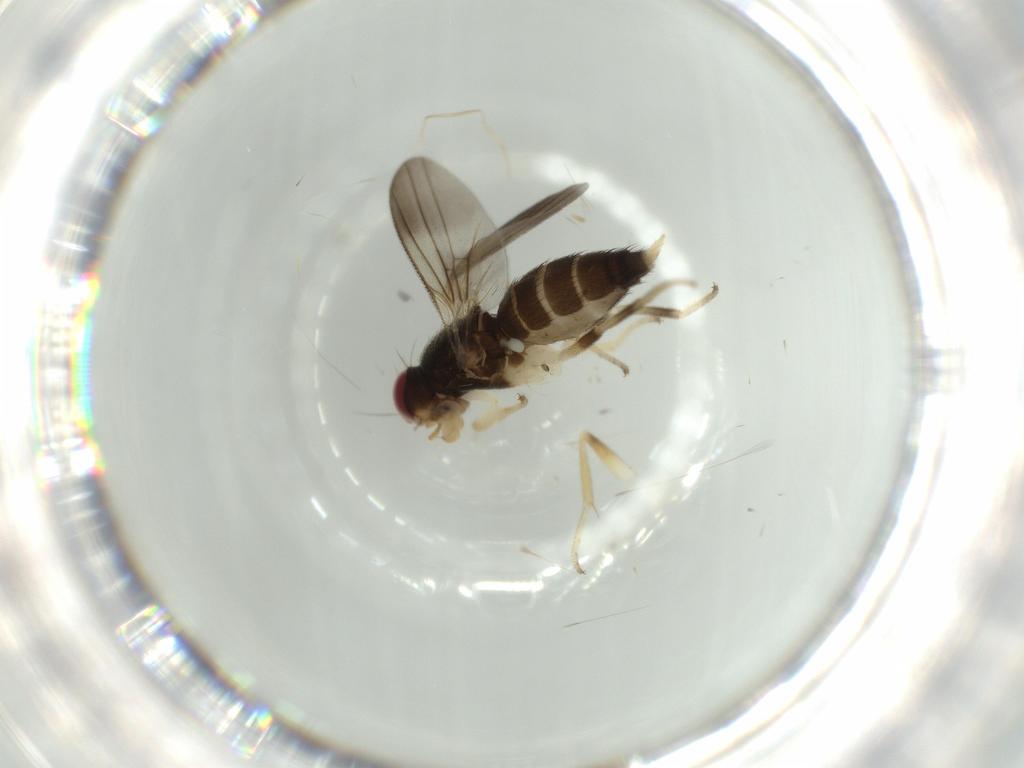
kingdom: Animalia
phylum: Arthropoda
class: Insecta
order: Diptera
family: Clusiidae
